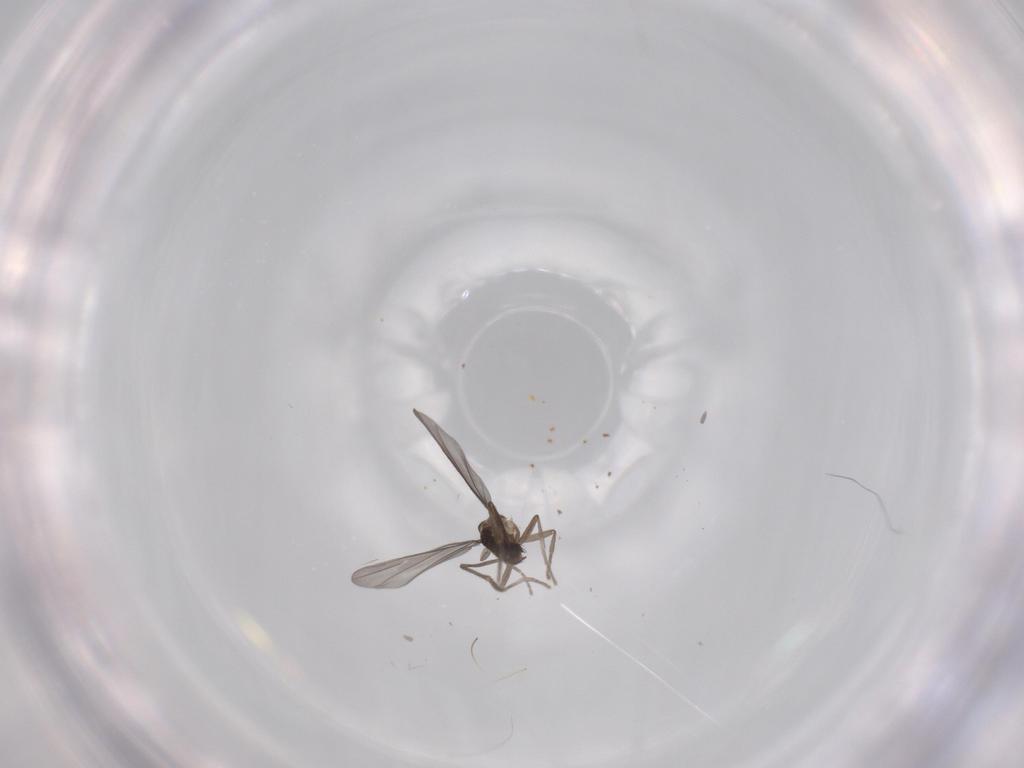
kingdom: Animalia
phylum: Arthropoda
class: Insecta
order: Diptera
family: Phoridae
